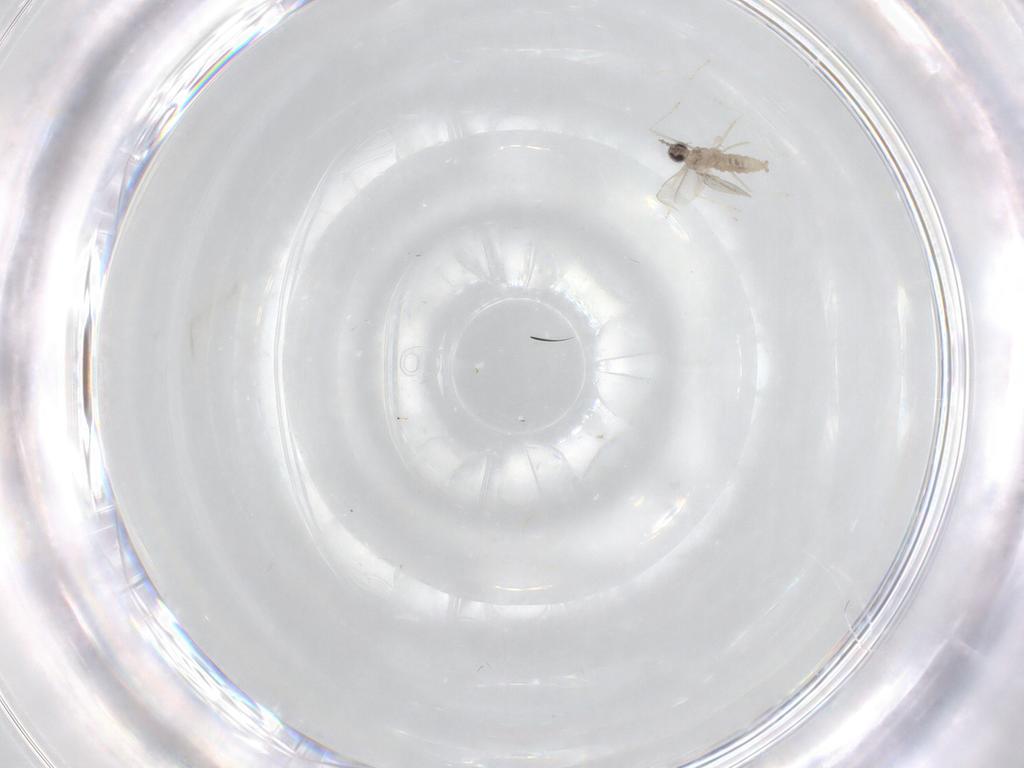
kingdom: Animalia
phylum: Arthropoda
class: Insecta
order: Diptera
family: Cecidomyiidae
